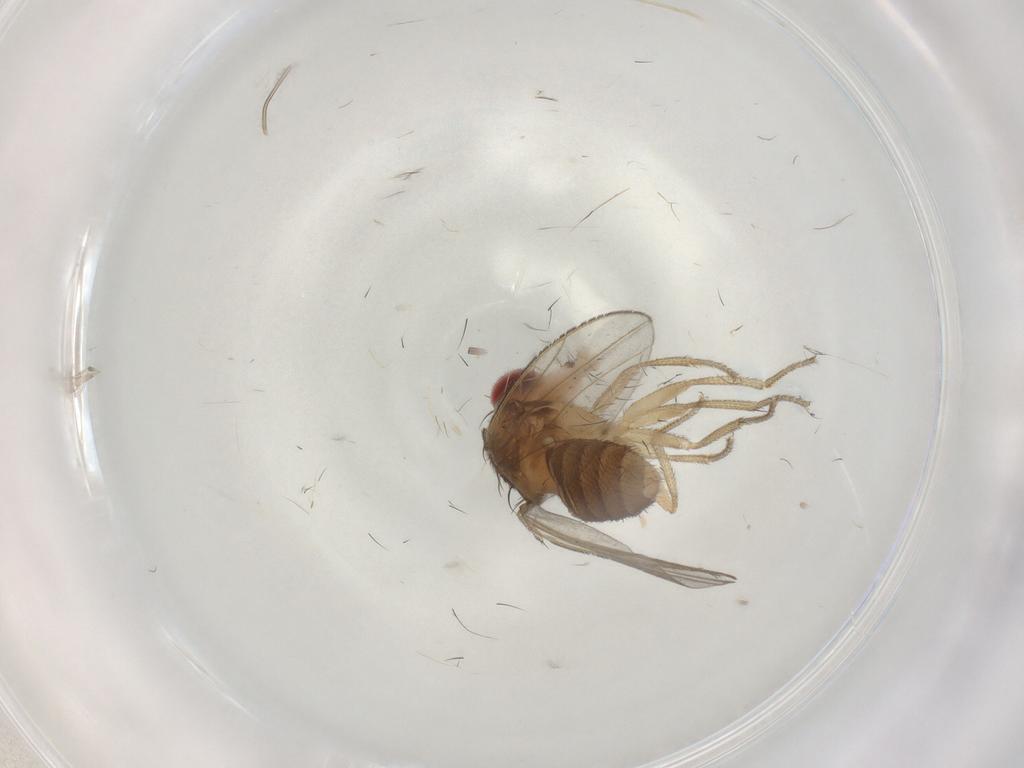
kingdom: Animalia
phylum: Arthropoda
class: Insecta
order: Diptera
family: Drosophilidae
